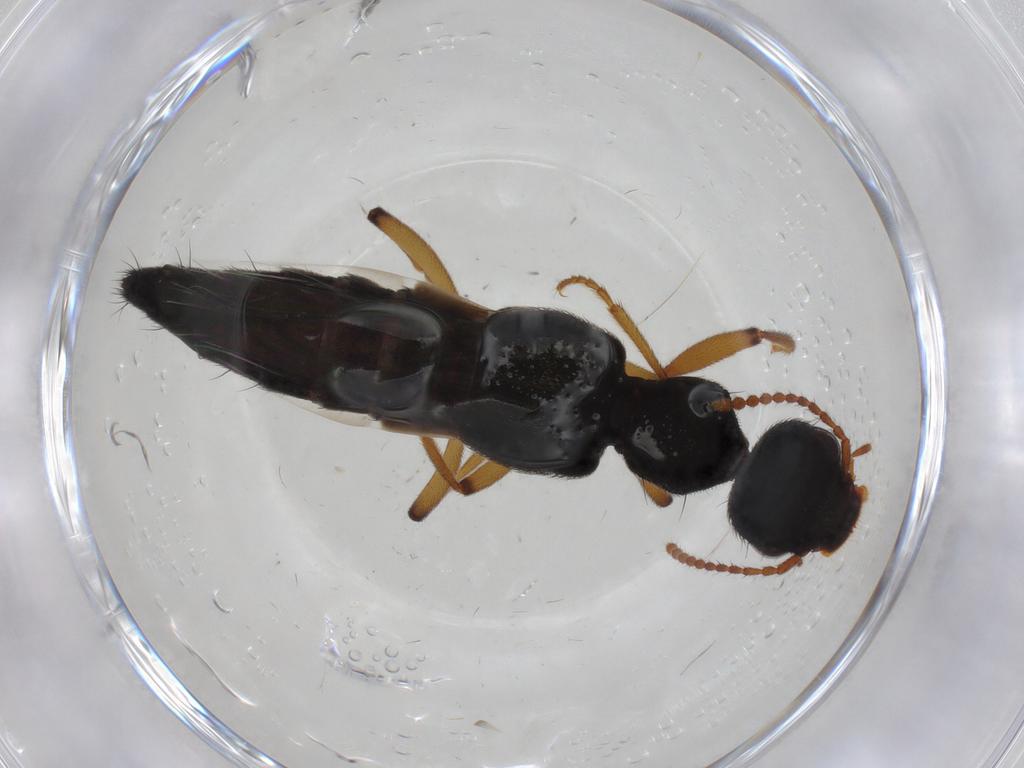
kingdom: Animalia
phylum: Arthropoda
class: Insecta
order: Coleoptera
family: Staphylinidae
